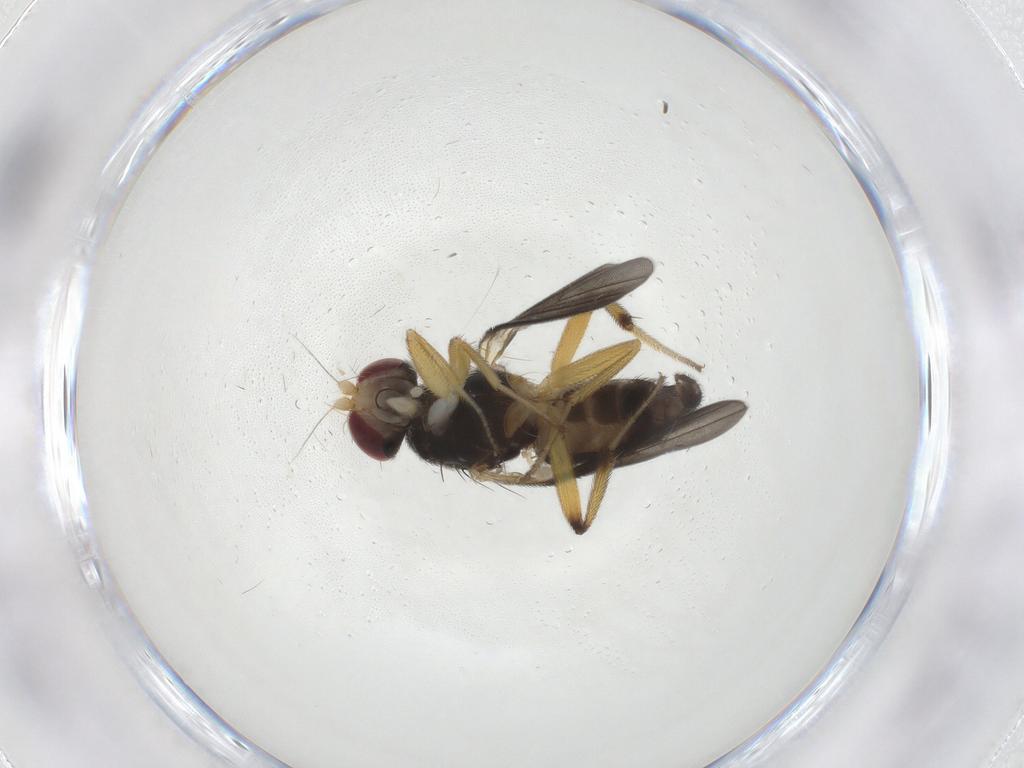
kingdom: Animalia
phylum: Arthropoda
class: Insecta
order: Diptera
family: Clusiidae
